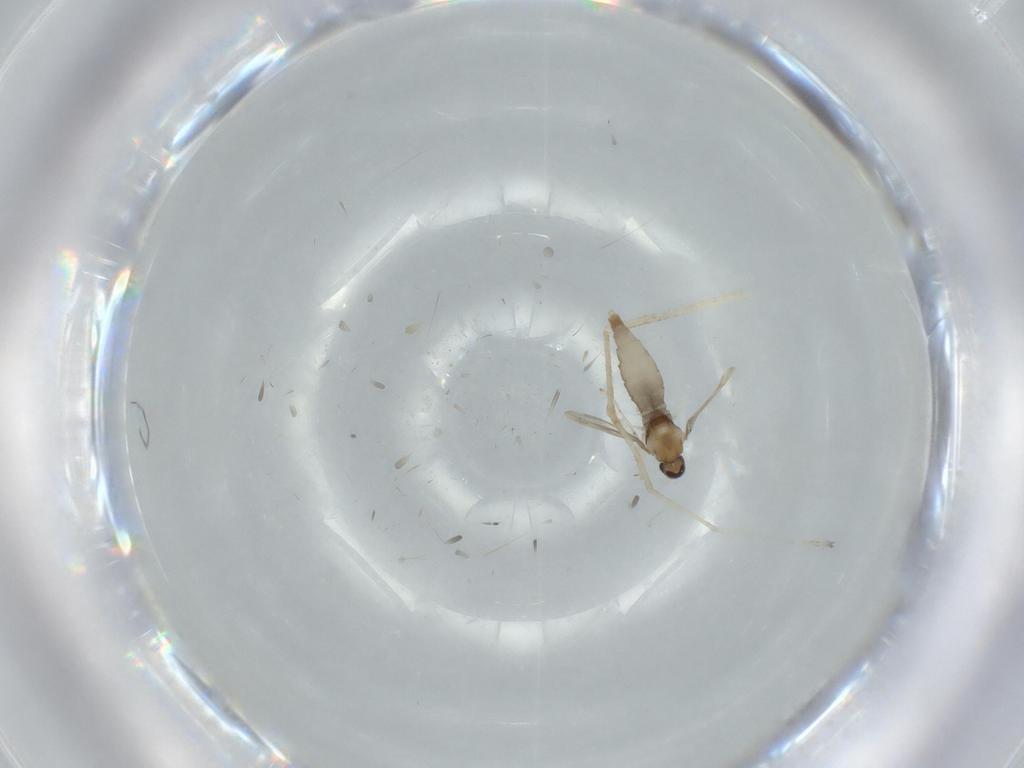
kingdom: Animalia
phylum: Arthropoda
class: Insecta
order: Diptera
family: Cecidomyiidae
